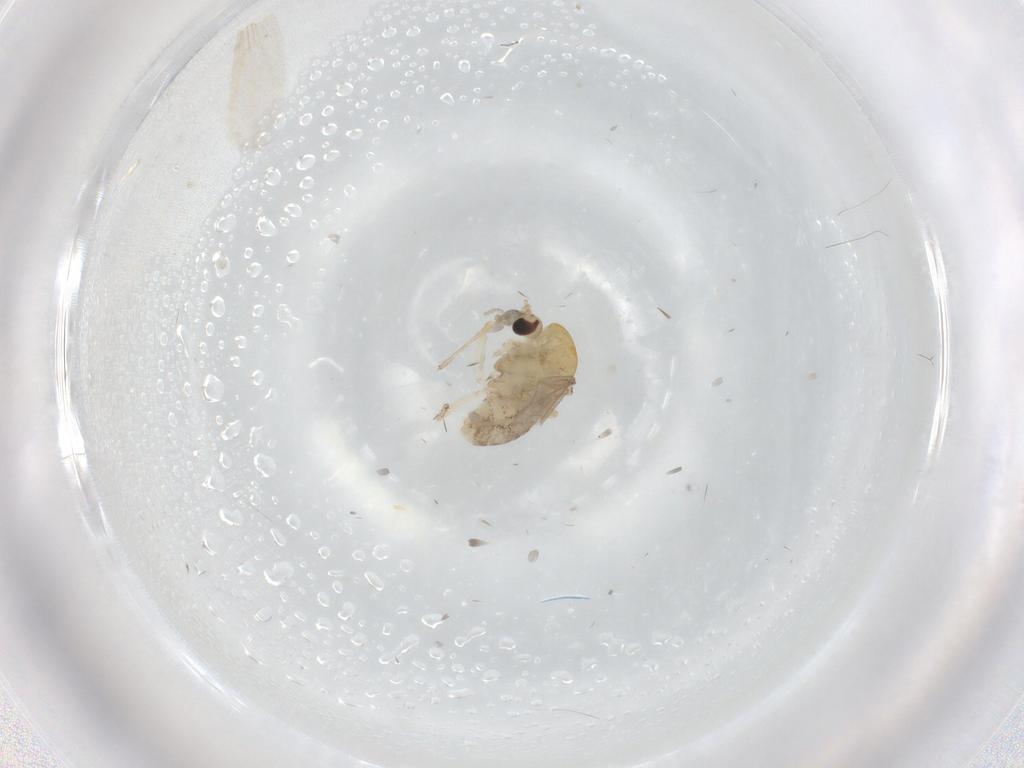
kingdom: Animalia
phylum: Arthropoda
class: Insecta
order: Diptera
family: Chironomidae
